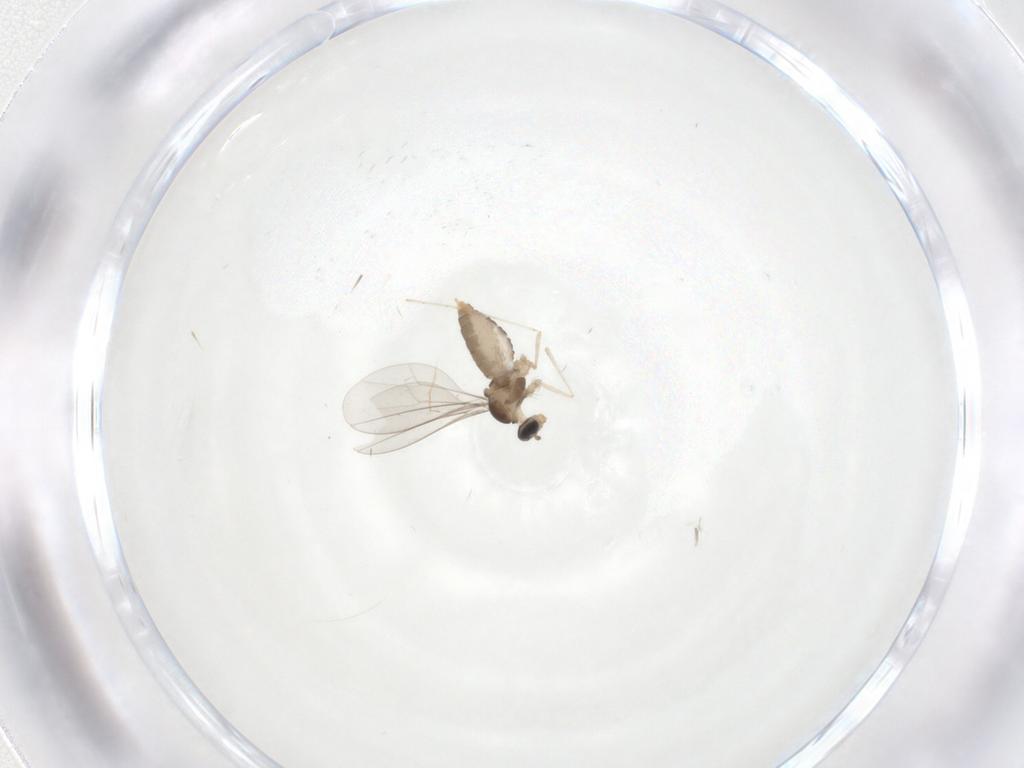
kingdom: Animalia
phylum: Arthropoda
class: Insecta
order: Diptera
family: Cecidomyiidae
